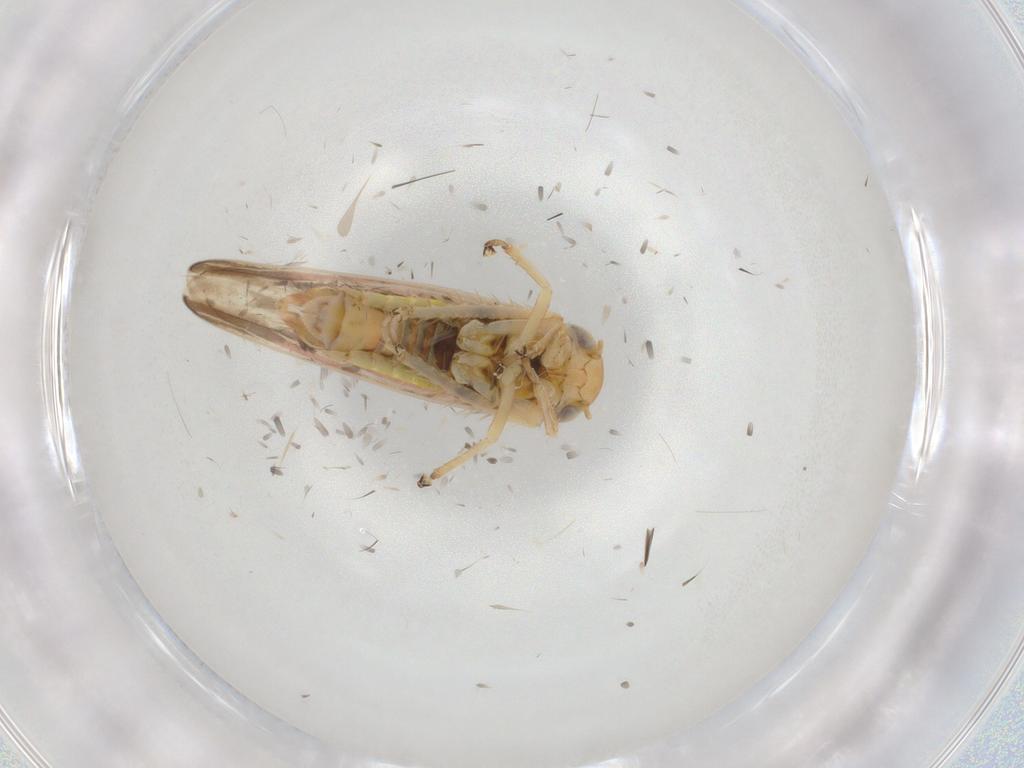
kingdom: Animalia
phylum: Arthropoda
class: Insecta
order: Hemiptera
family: Cicadellidae
